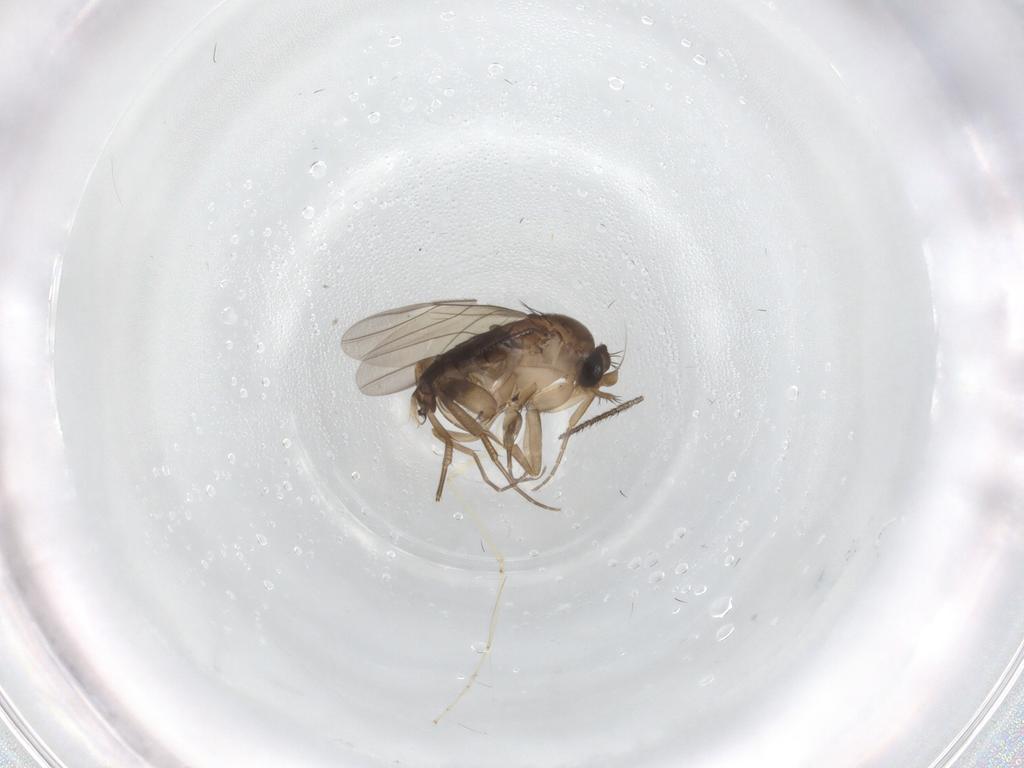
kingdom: Animalia
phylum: Arthropoda
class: Insecta
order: Diptera
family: Phoridae
